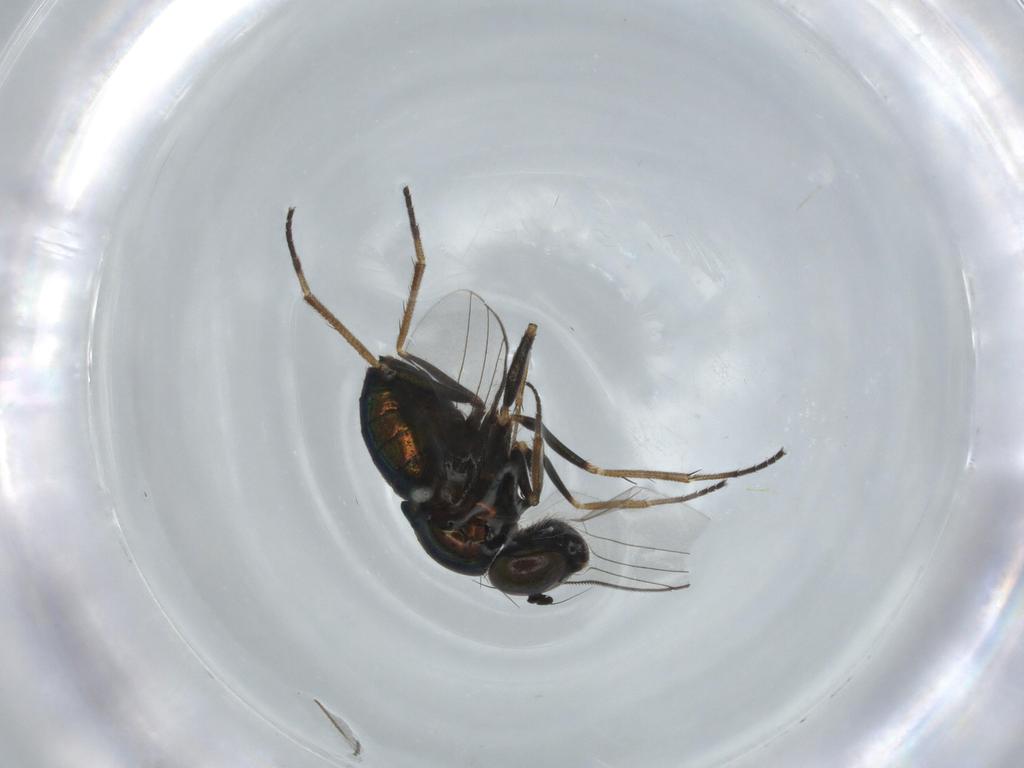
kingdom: Animalia
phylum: Arthropoda
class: Insecta
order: Diptera
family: Dolichopodidae
